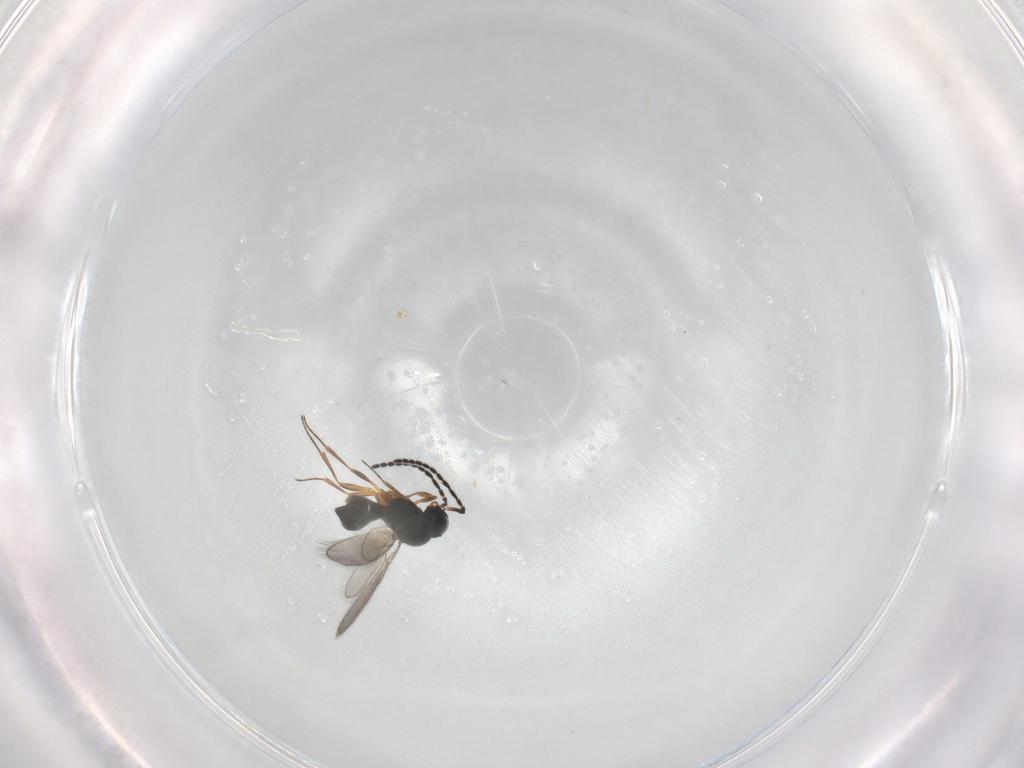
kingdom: Animalia
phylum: Arthropoda
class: Insecta
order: Hymenoptera
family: Scelionidae
